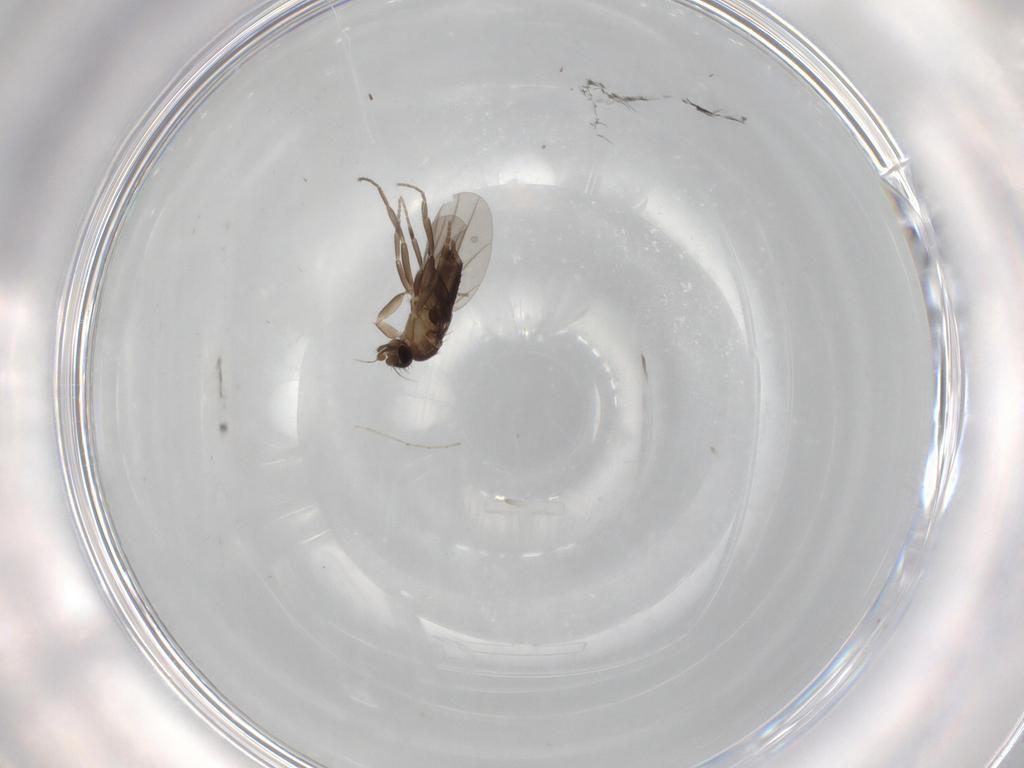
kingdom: Animalia
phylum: Arthropoda
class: Insecta
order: Diptera
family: Phoridae
